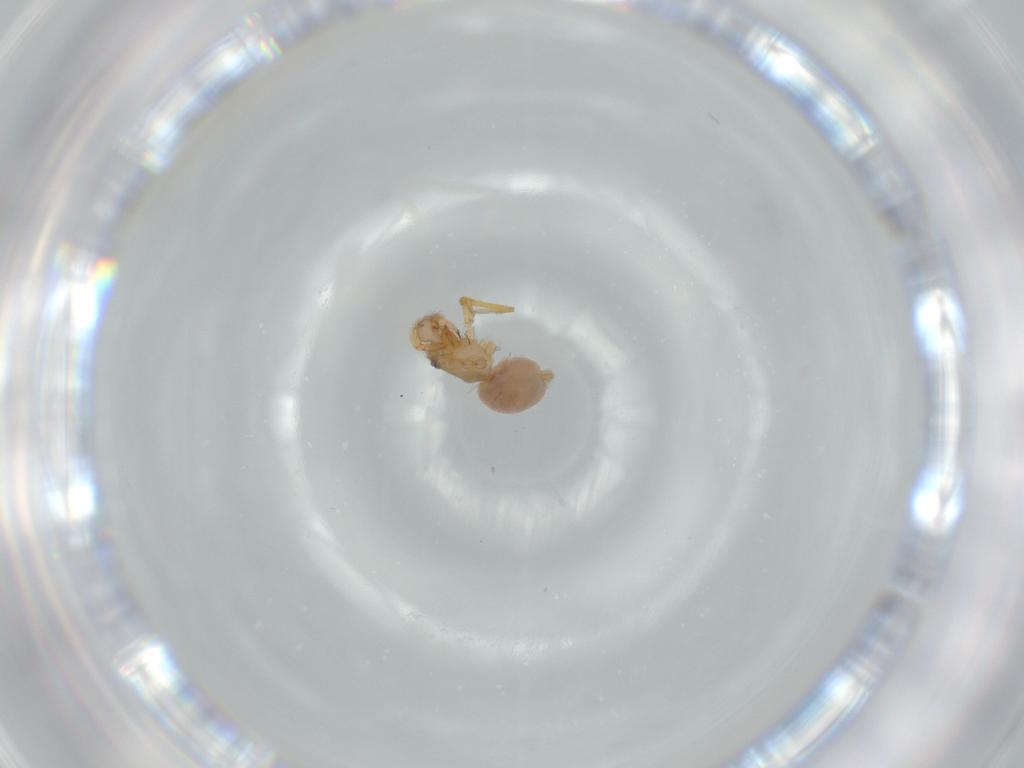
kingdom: Animalia
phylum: Arthropoda
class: Arachnida
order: Araneae
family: Oonopidae
